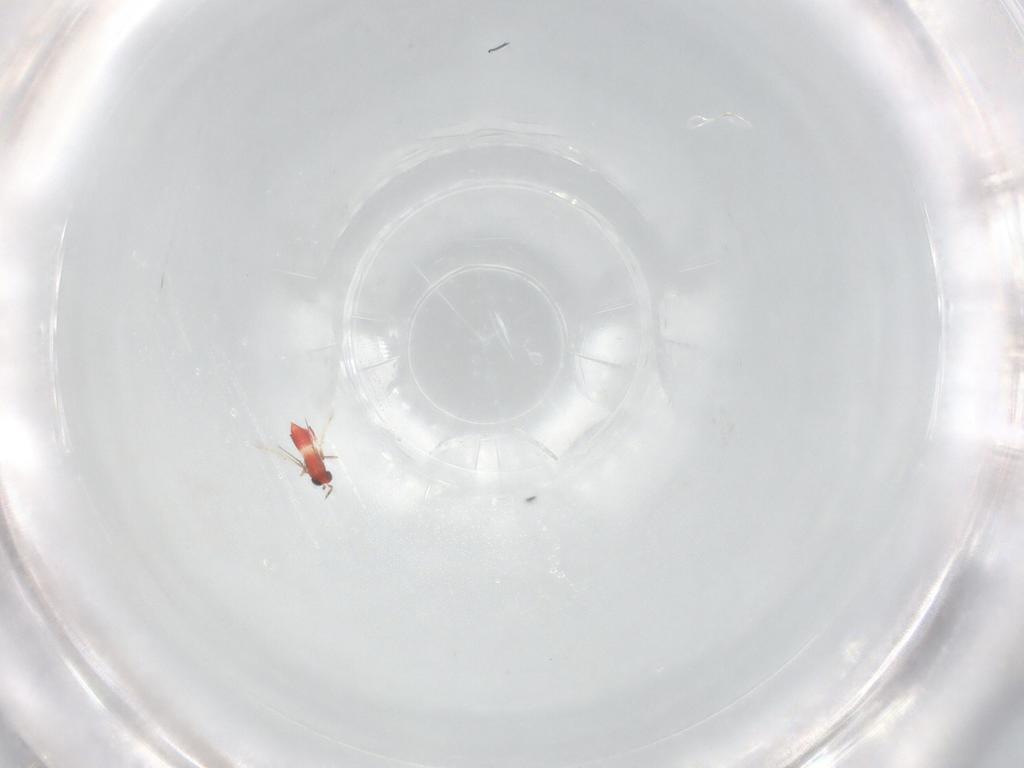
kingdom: Animalia
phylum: Arthropoda
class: Insecta
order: Hymenoptera
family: Trichogrammatidae
